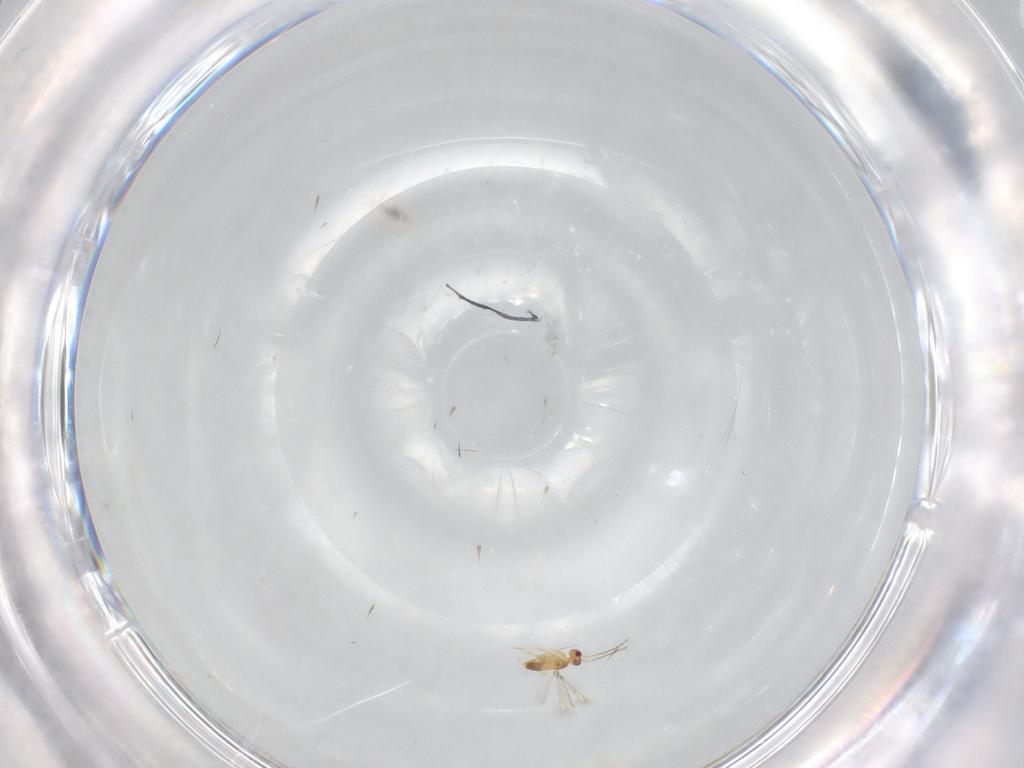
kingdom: Animalia
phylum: Arthropoda
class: Insecta
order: Hymenoptera
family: Mymaridae
